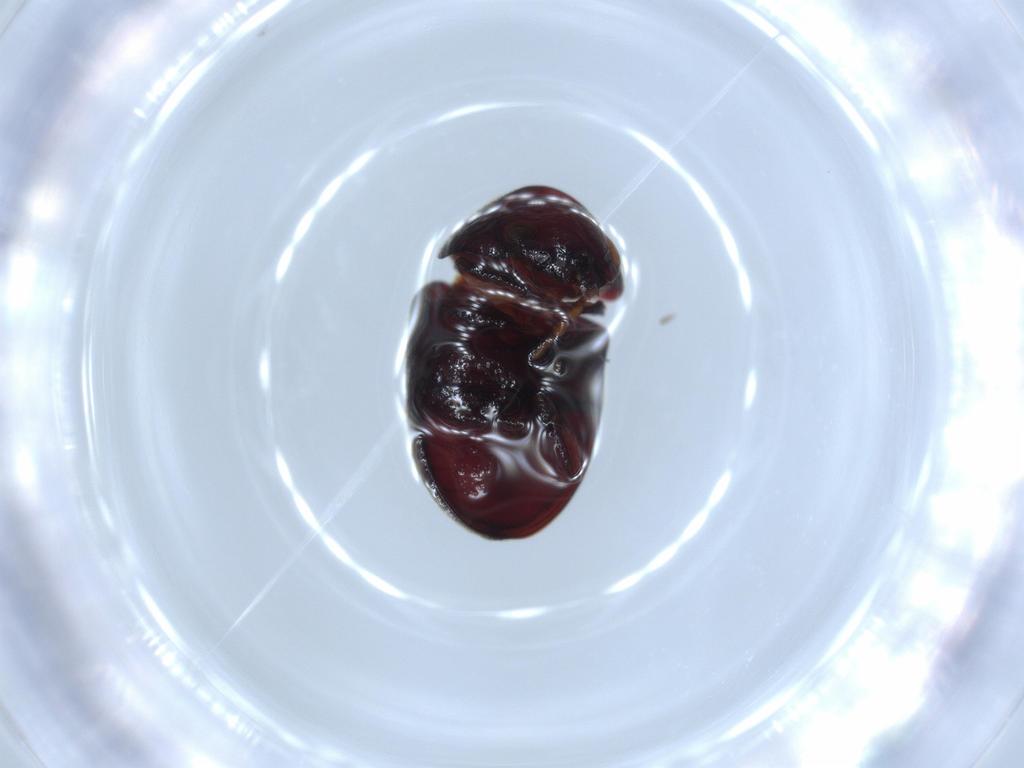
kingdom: Animalia
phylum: Arthropoda
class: Insecta
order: Coleoptera
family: Ptinidae
